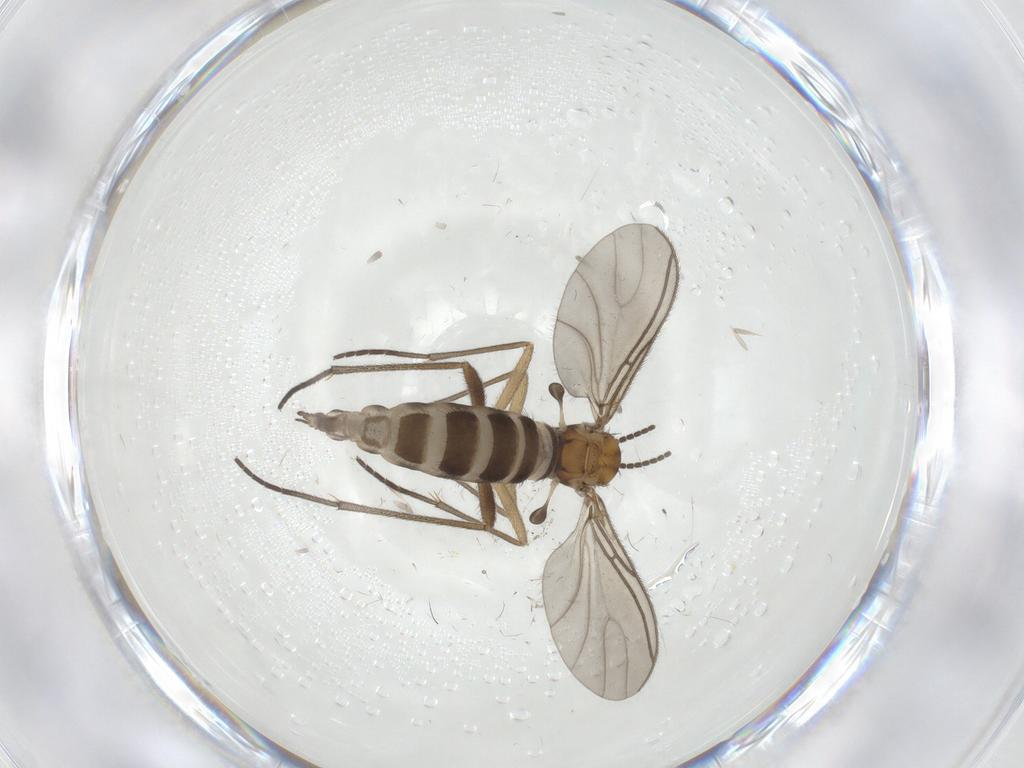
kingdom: Animalia
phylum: Arthropoda
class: Insecta
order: Diptera
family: Sciaridae
